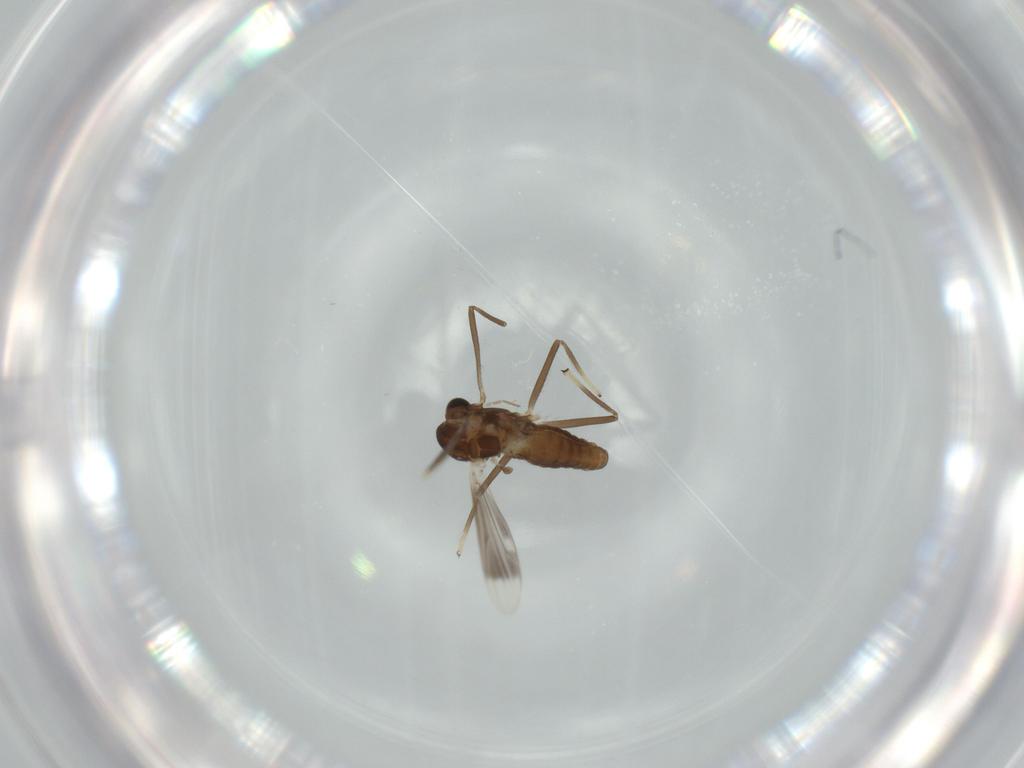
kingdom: Animalia
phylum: Arthropoda
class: Insecta
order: Diptera
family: Chironomidae
